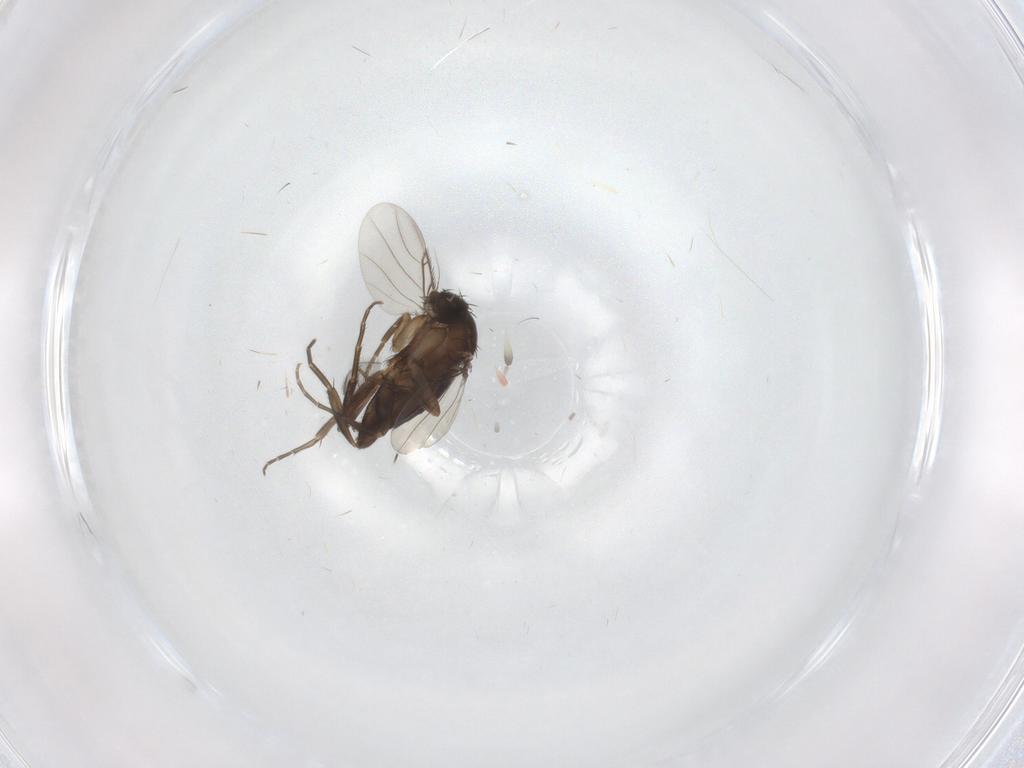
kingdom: Animalia
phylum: Arthropoda
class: Insecta
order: Diptera
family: Phoridae
